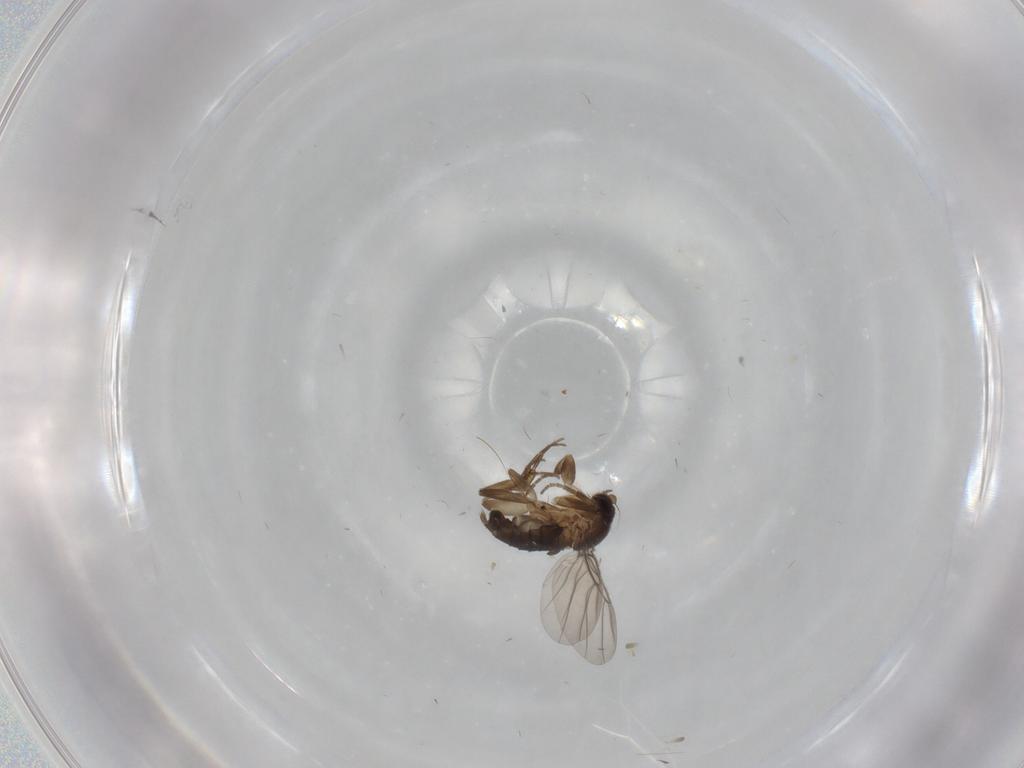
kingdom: Animalia
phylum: Arthropoda
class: Insecta
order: Diptera
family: Phoridae
